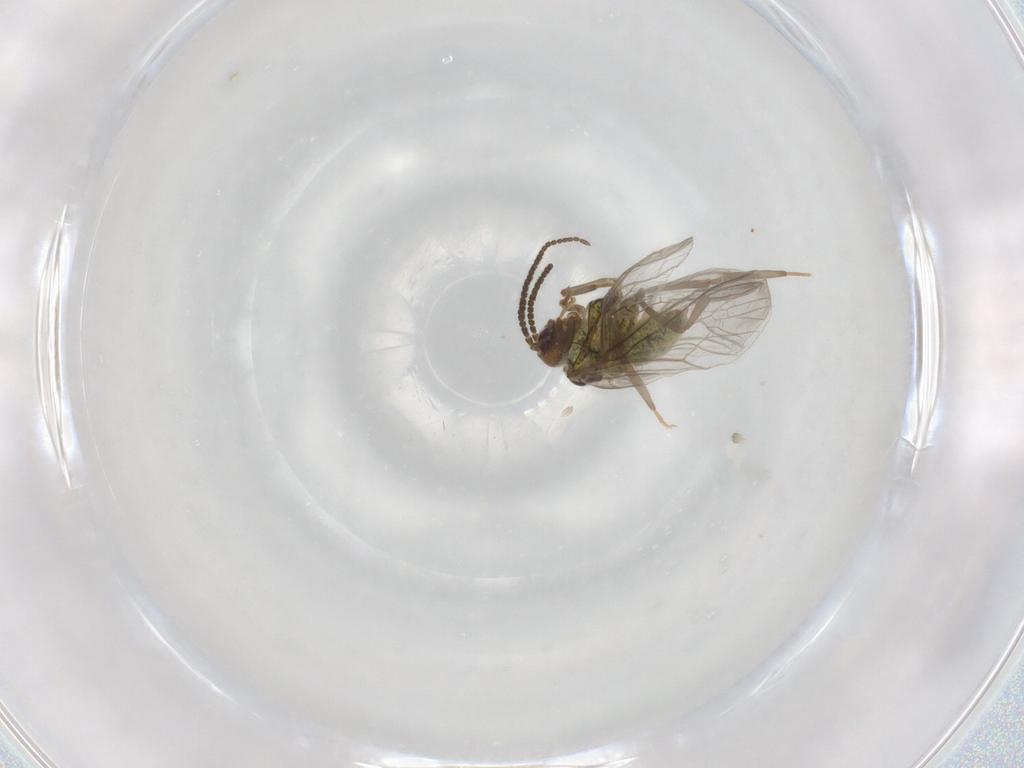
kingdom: Animalia
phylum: Arthropoda
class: Insecta
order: Neuroptera
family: Coniopterygidae
